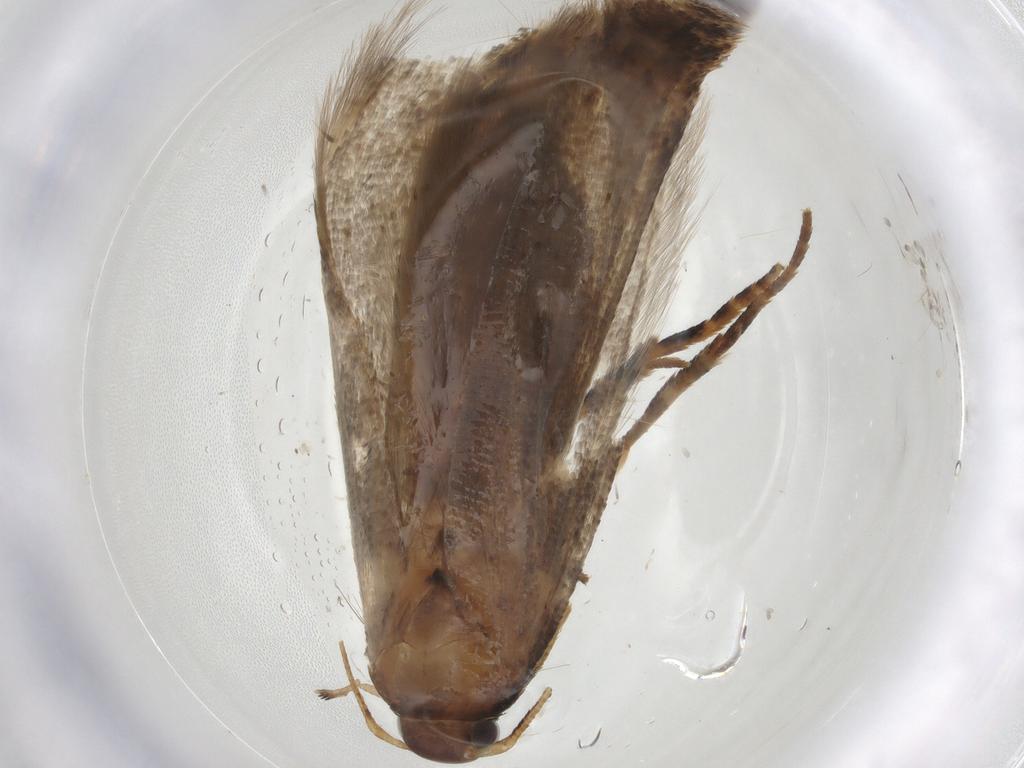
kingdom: Animalia
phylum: Arthropoda
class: Insecta
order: Lepidoptera
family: Gelechiidae
